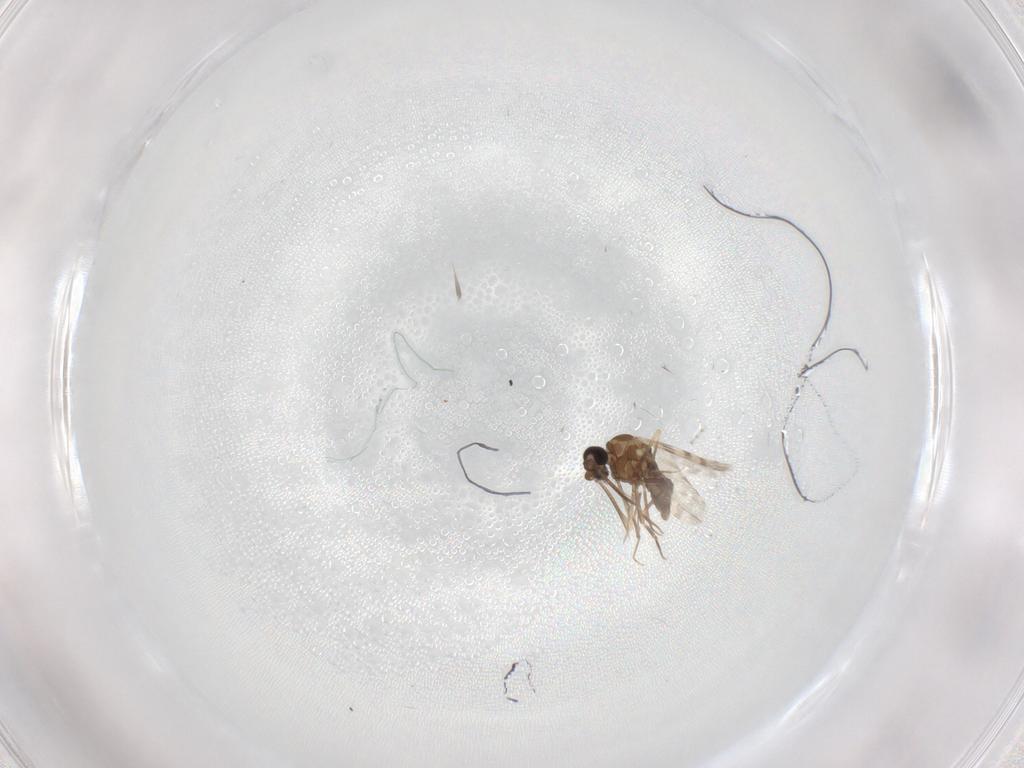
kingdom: Animalia
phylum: Arthropoda
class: Insecta
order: Diptera
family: Ceratopogonidae
